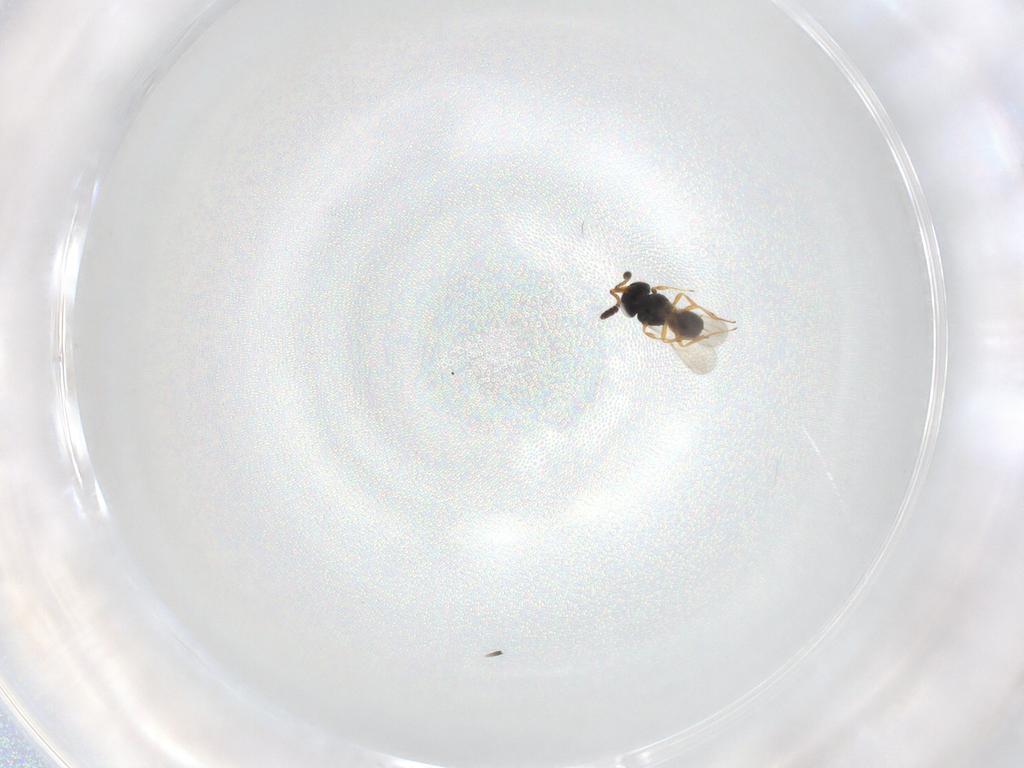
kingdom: Animalia
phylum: Arthropoda
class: Insecta
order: Hymenoptera
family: Scelionidae
